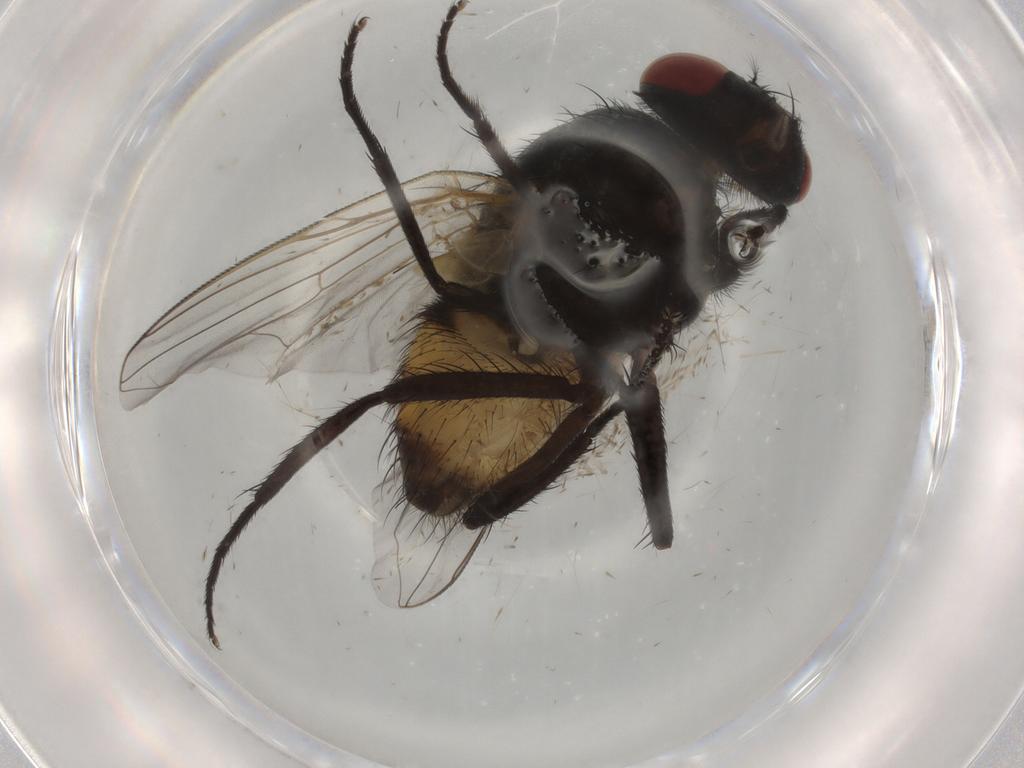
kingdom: Animalia
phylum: Arthropoda
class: Insecta
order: Diptera
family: Muscidae
